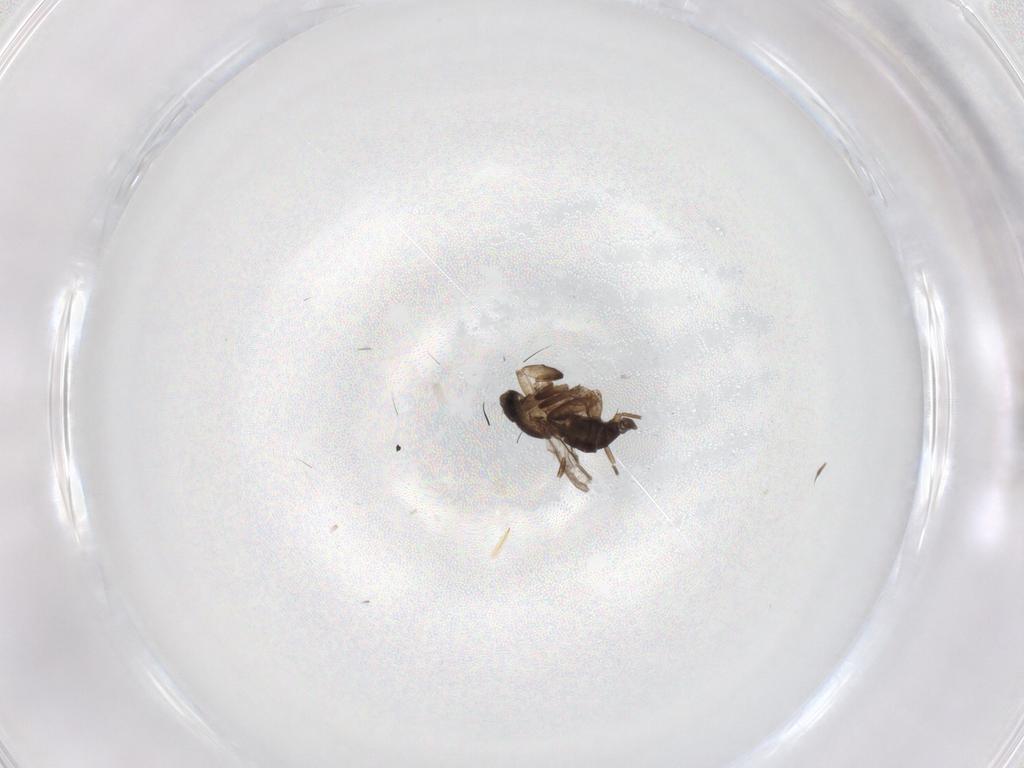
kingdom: Animalia
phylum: Arthropoda
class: Insecta
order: Diptera
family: Phoridae
